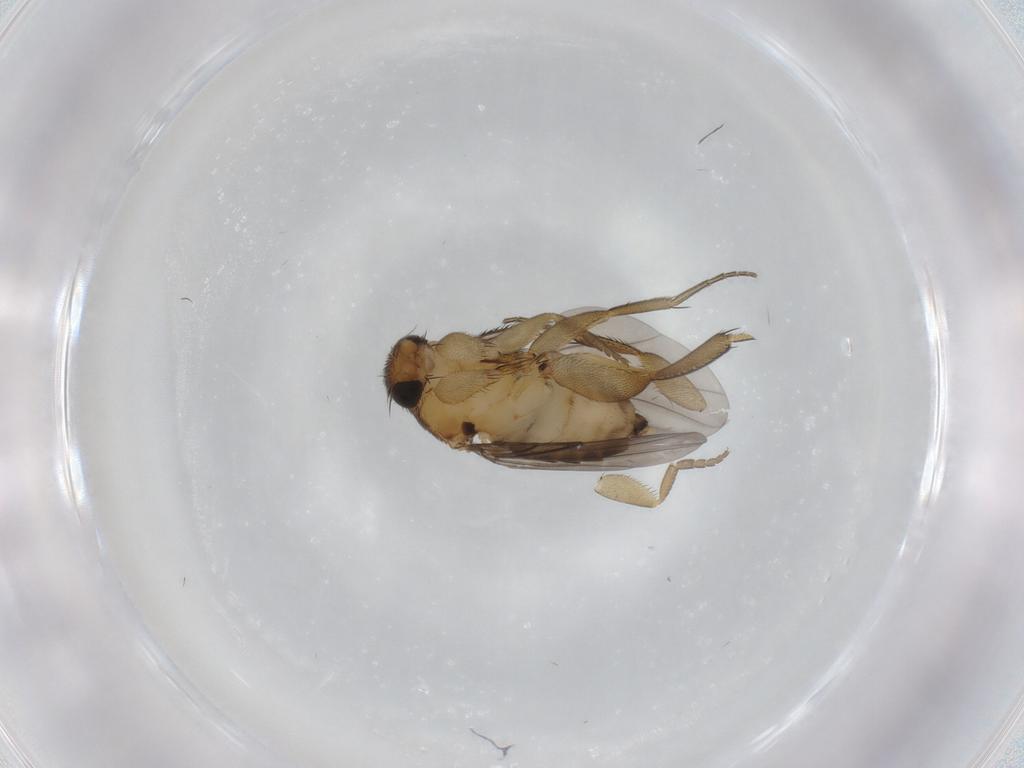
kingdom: Animalia
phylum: Arthropoda
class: Insecta
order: Diptera
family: Phoridae
